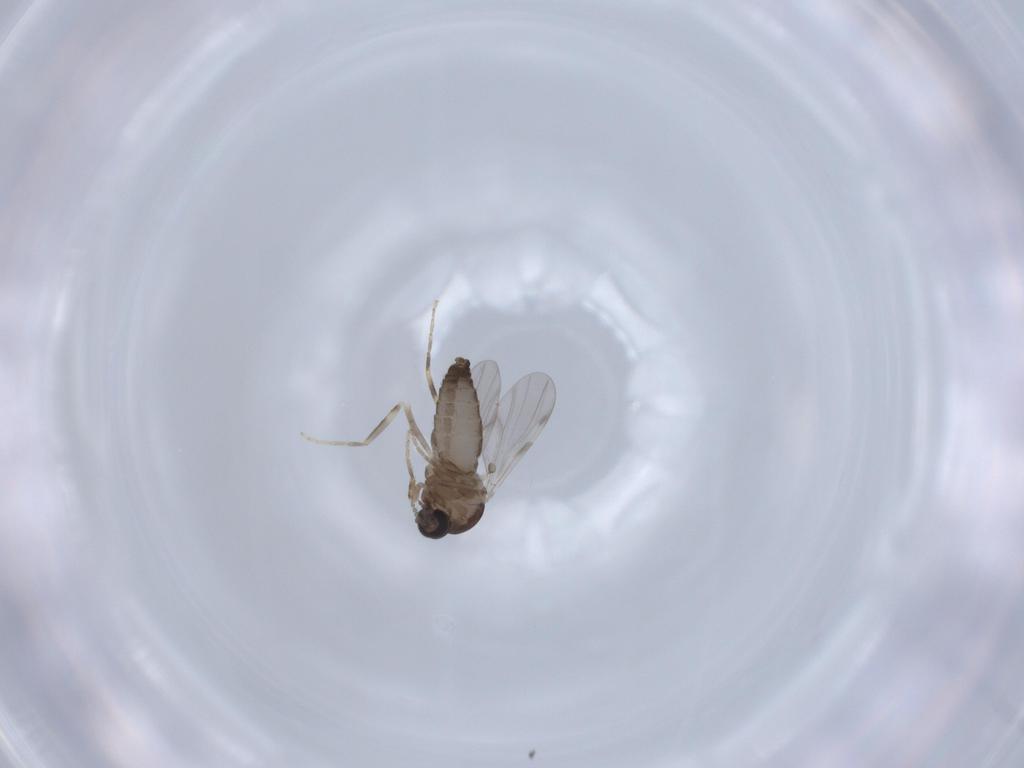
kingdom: Animalia
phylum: Arthropoda
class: Insecta
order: Diptera
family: Ceratopogonidae
